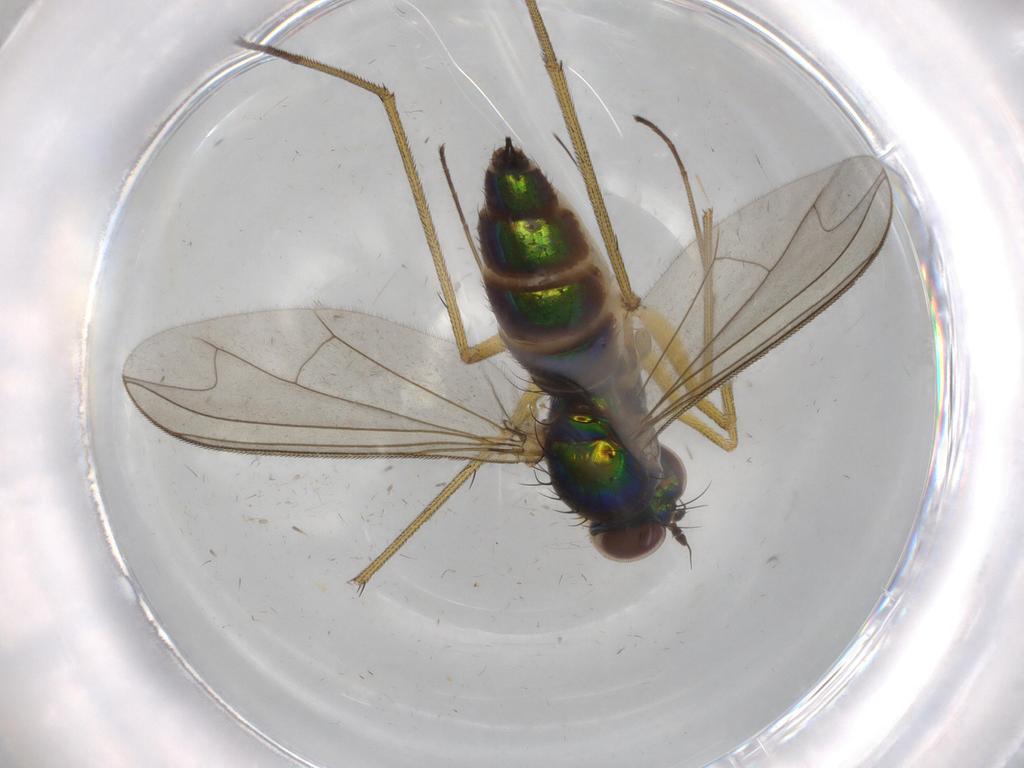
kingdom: Animalia
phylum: Arthropoda
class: Insecta
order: Diptera
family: Dolichopodidae
